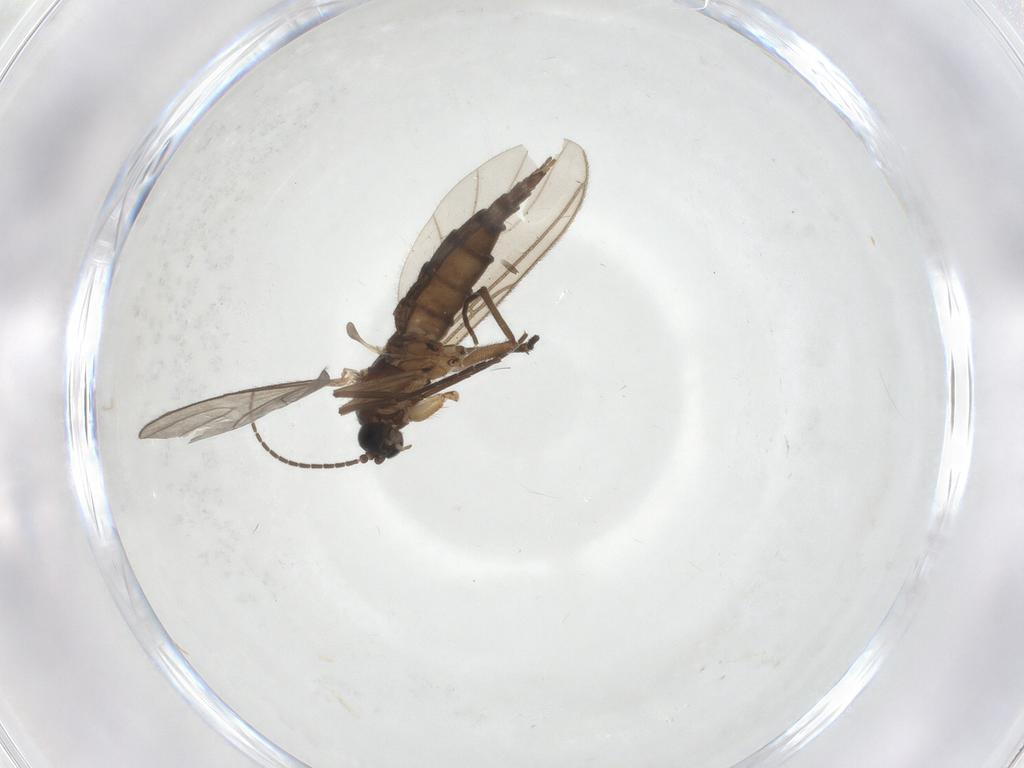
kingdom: Animalia
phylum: Arthropoda
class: Insecta
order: Diptera
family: Sciaridae
